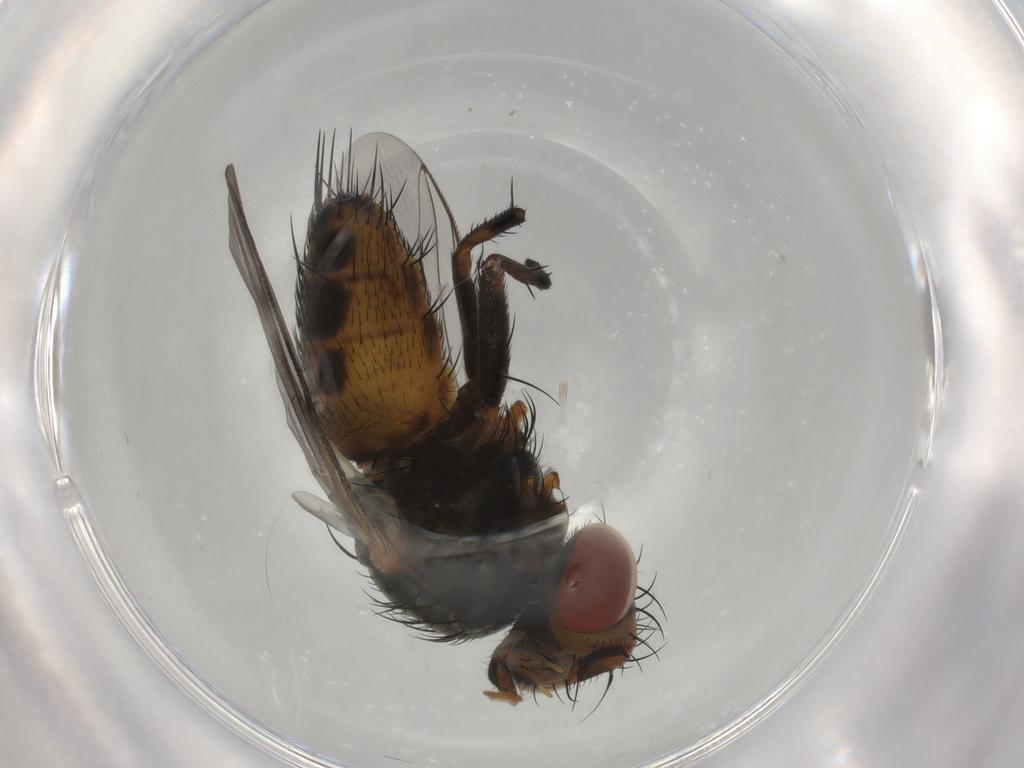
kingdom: Animalia
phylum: Arthropoda
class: Insecta
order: Diptera
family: Sarcophagidae
